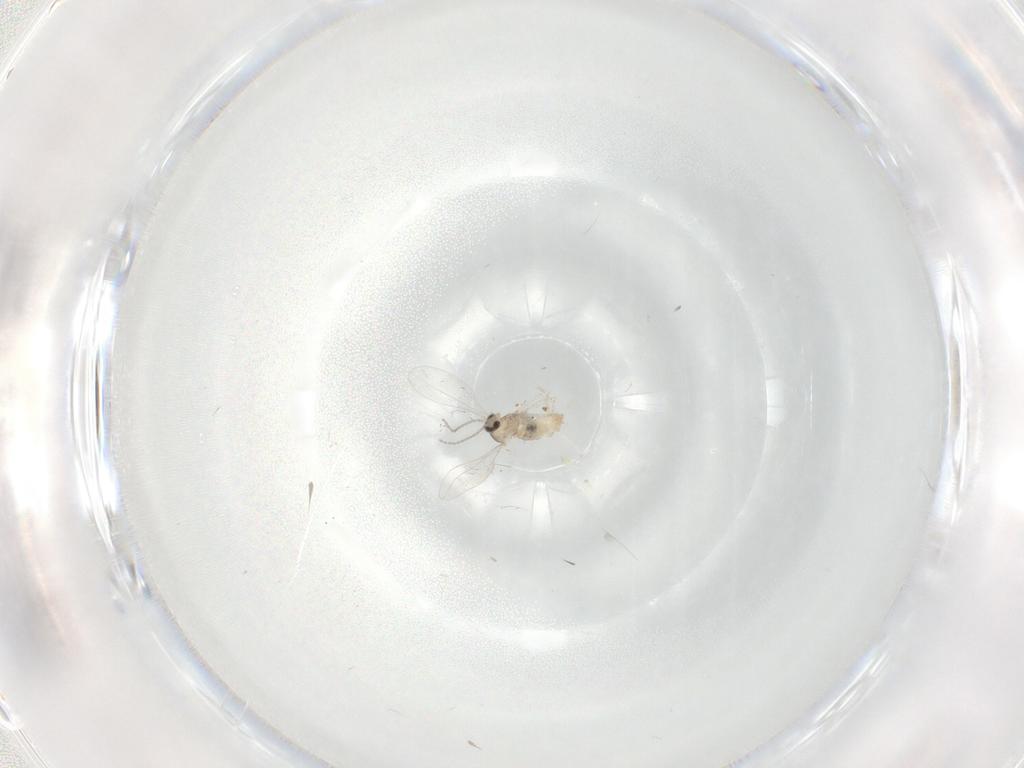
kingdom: Animalia
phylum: Arthropoda
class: Insecta
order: Diptera
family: Cecidomyiidae
